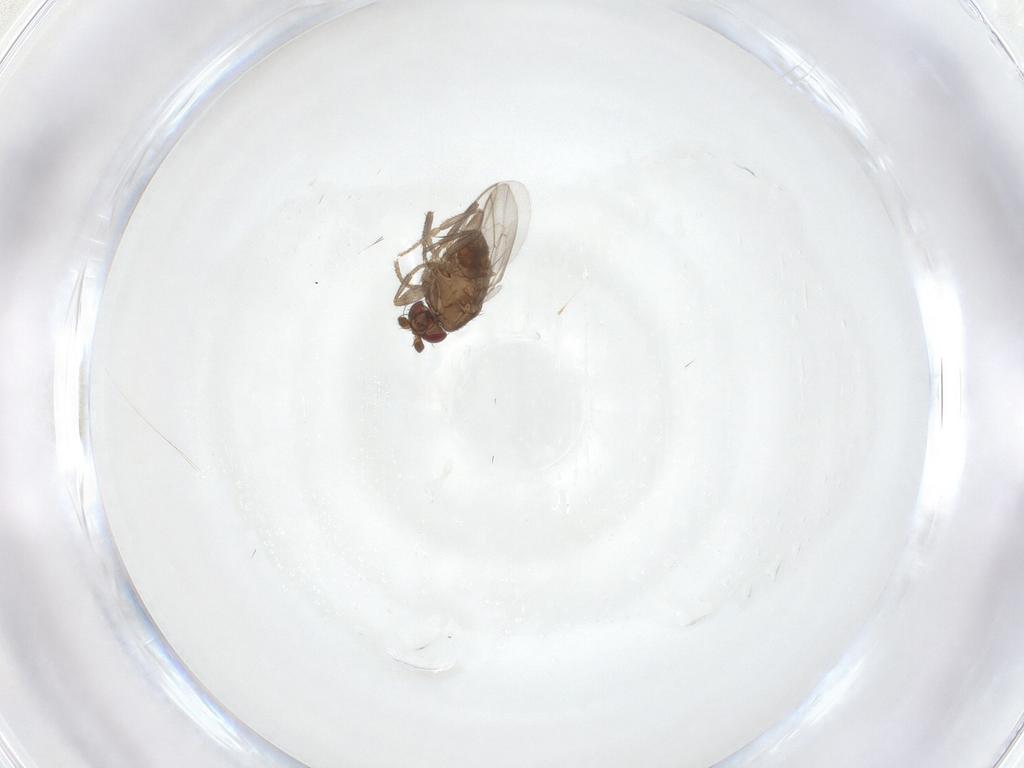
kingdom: Animalia
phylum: Arthropoda
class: Insecta
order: Diptera
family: Sphaeroceridae
